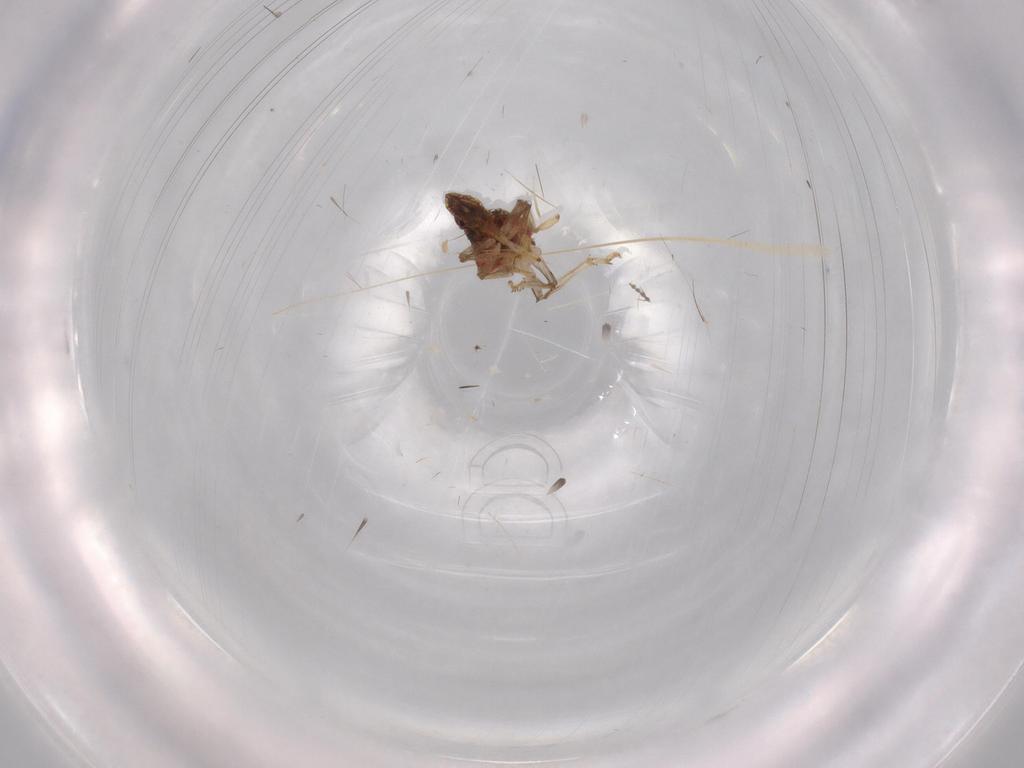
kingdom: Animalia
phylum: Arthropoda
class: Insecta
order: Hemiptera
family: Issidae
